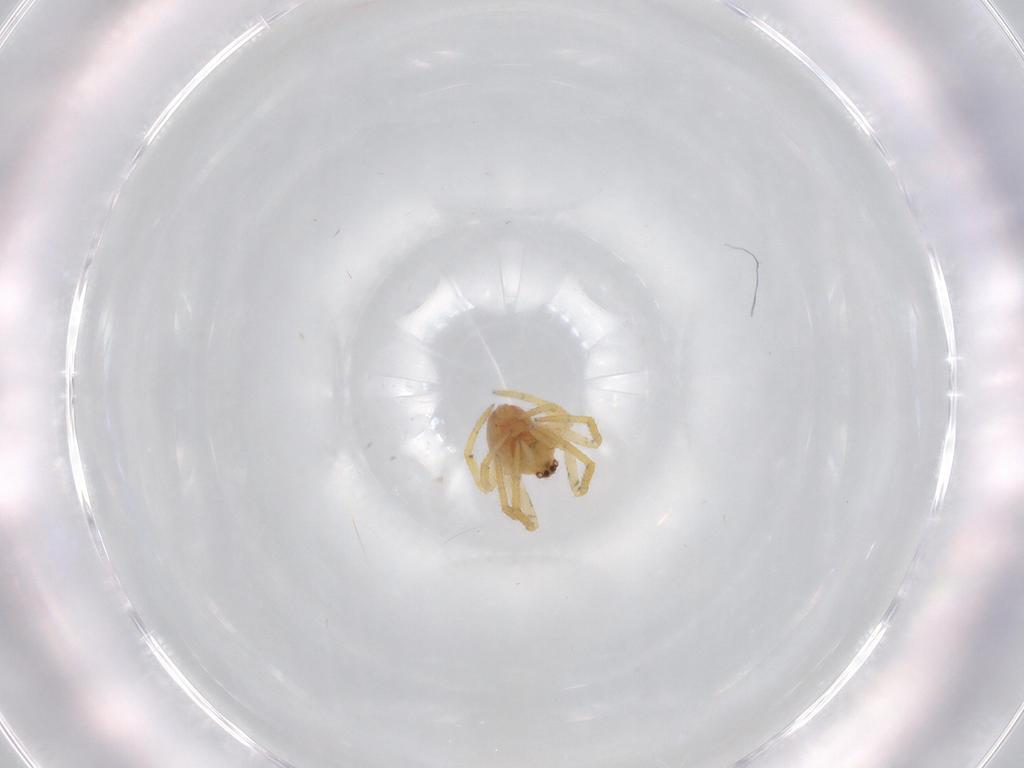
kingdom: Animalia
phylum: Arthropoda
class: Arachnida
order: Araneae
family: Theridiidae
